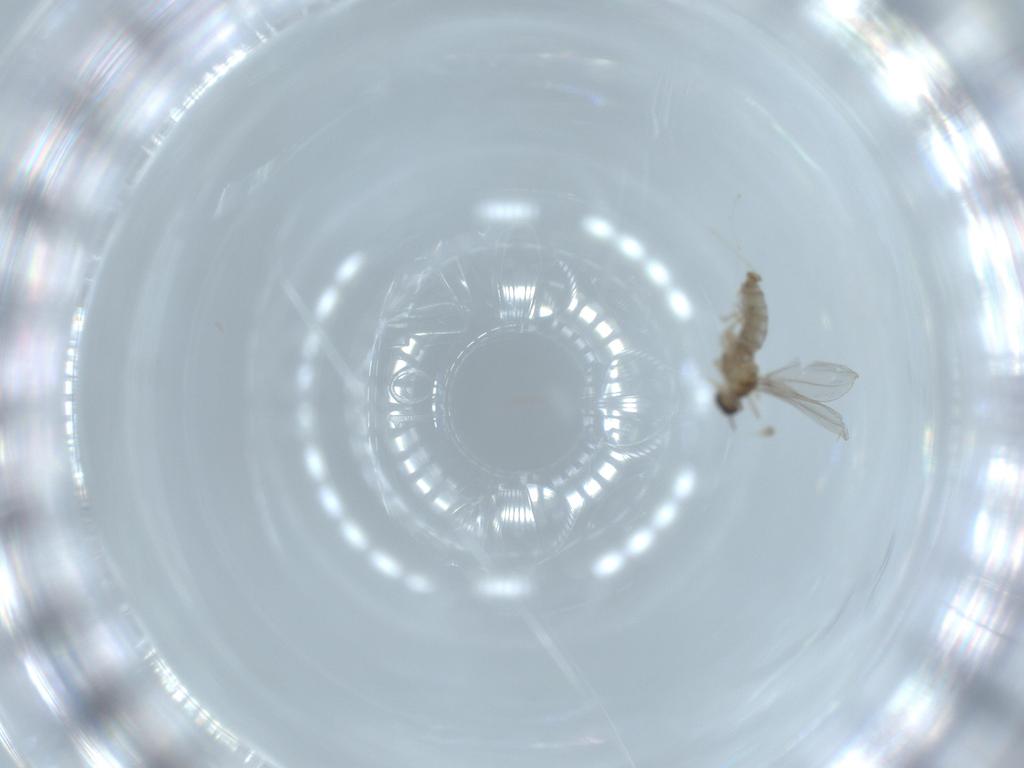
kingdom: Animalia
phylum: Arthropoda
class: Insecta
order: Diptera
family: Cecidomyiidae
